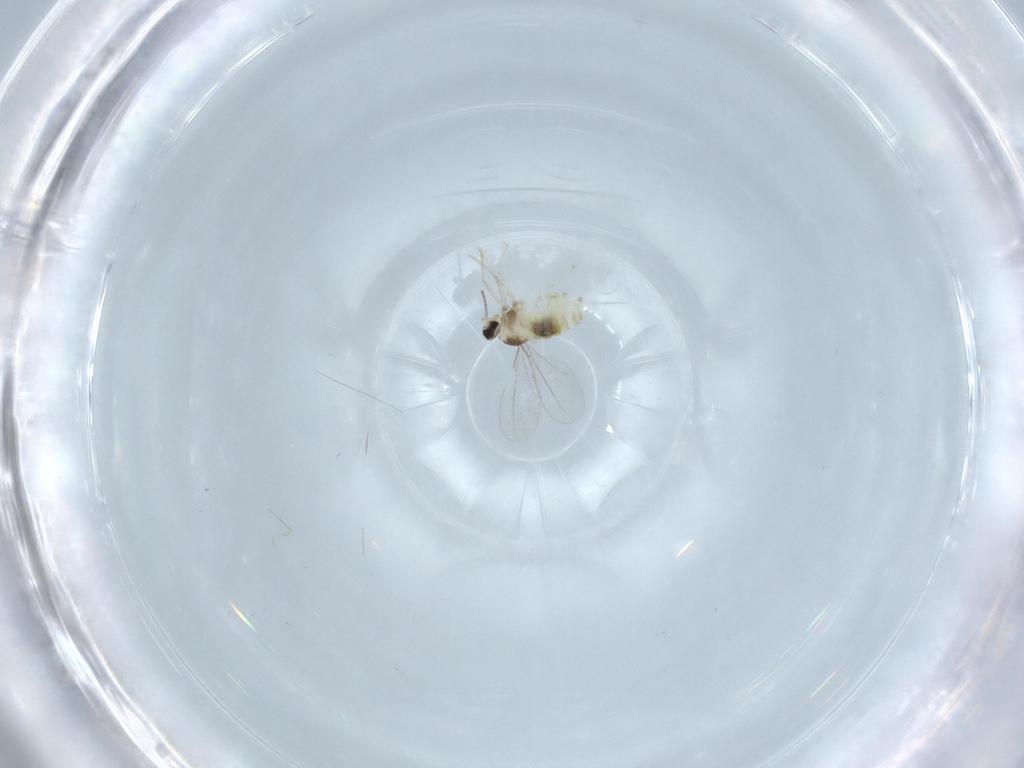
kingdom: Animalia
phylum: Arthropoda
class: Insecta
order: Diptera
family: Cecidomyiidae
